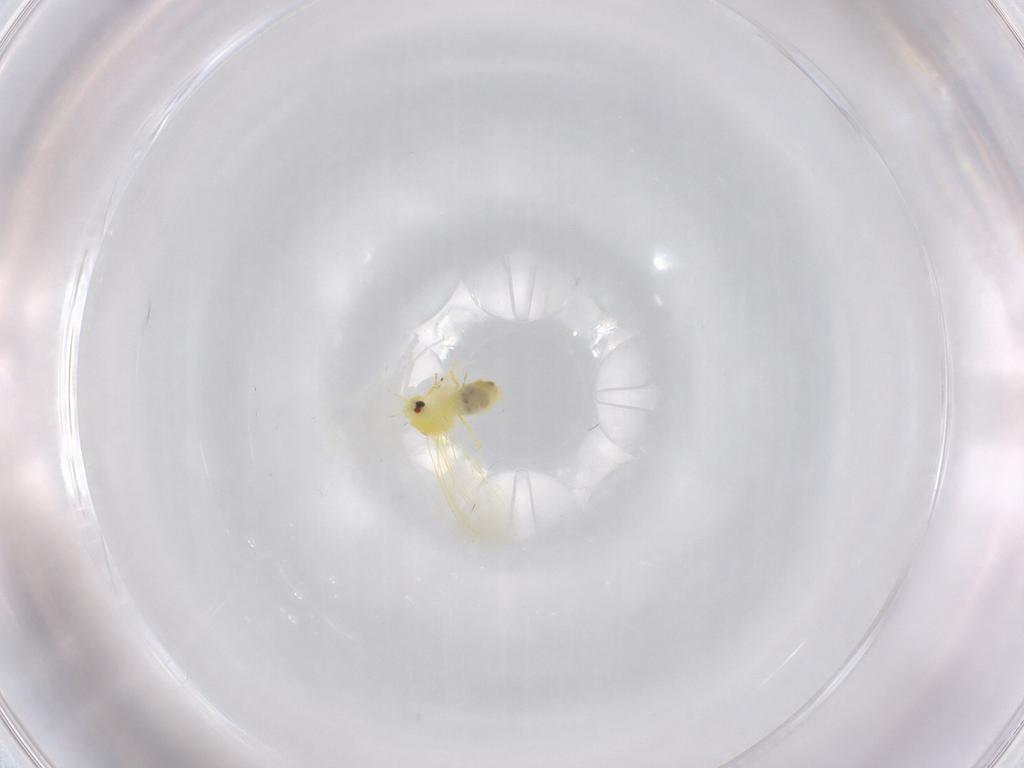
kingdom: Animalia
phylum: Arthropoda
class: Insecta
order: Hemiptera
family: Aleyrodidae
